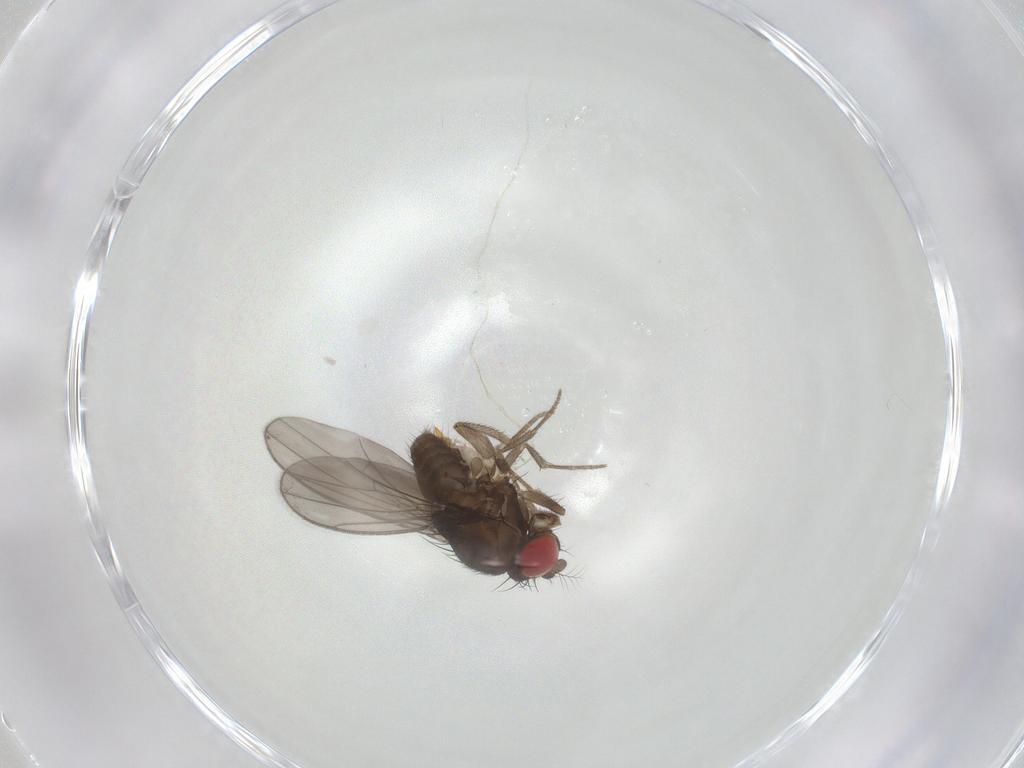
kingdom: Animalia
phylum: Arthropoda
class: Insecta
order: Diptera
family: Drosophilidae
